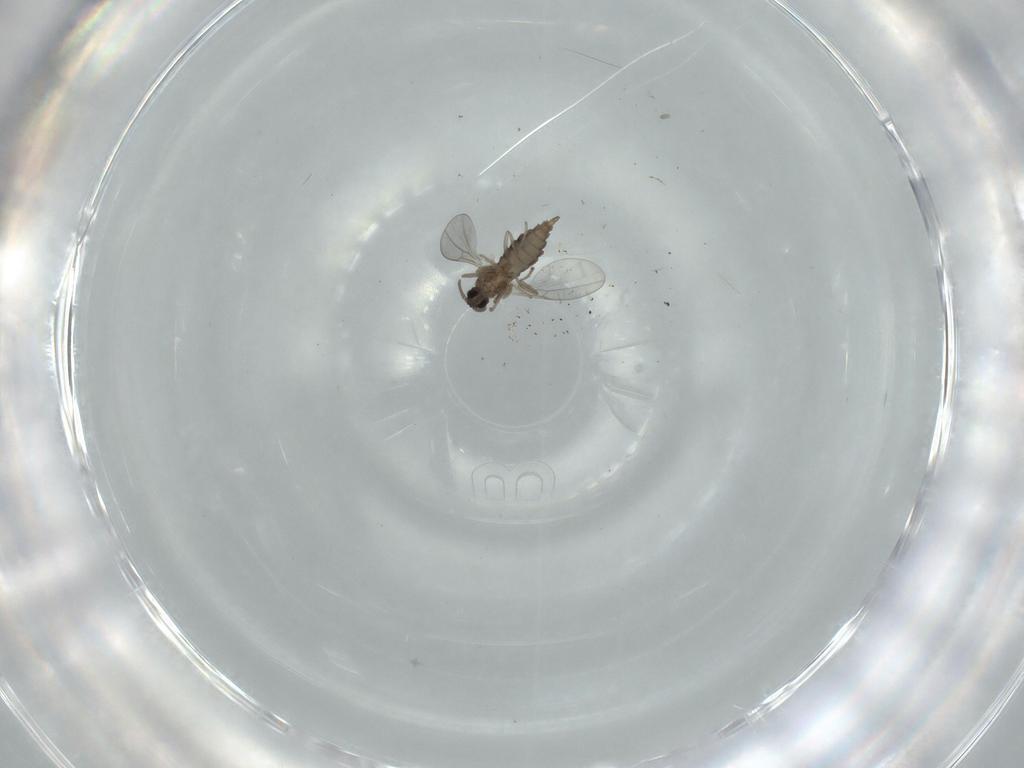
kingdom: Animalia
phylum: Arthropoda
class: Insecta
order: Diptera
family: Cecidomyiidae
